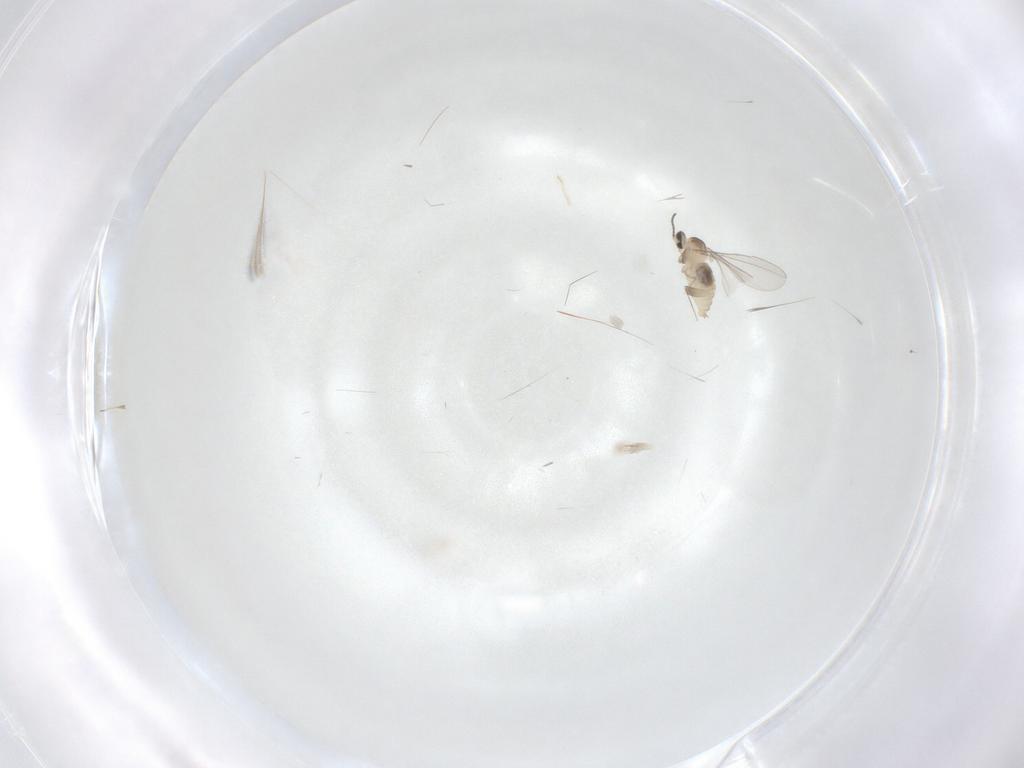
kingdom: Animalia
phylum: Arthropoda
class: Insecta
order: Diptera
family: Cecidomyiidae
